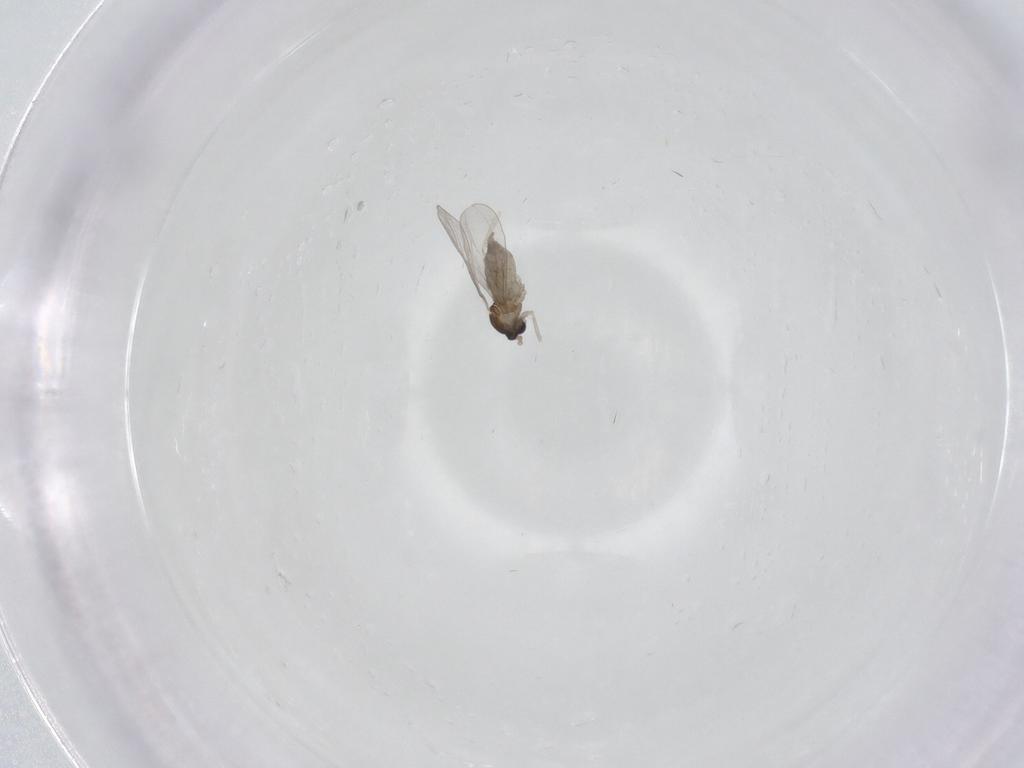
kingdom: Animalia
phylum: Arthropoda
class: Insecta
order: Diptera
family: Cecidomyiidae
